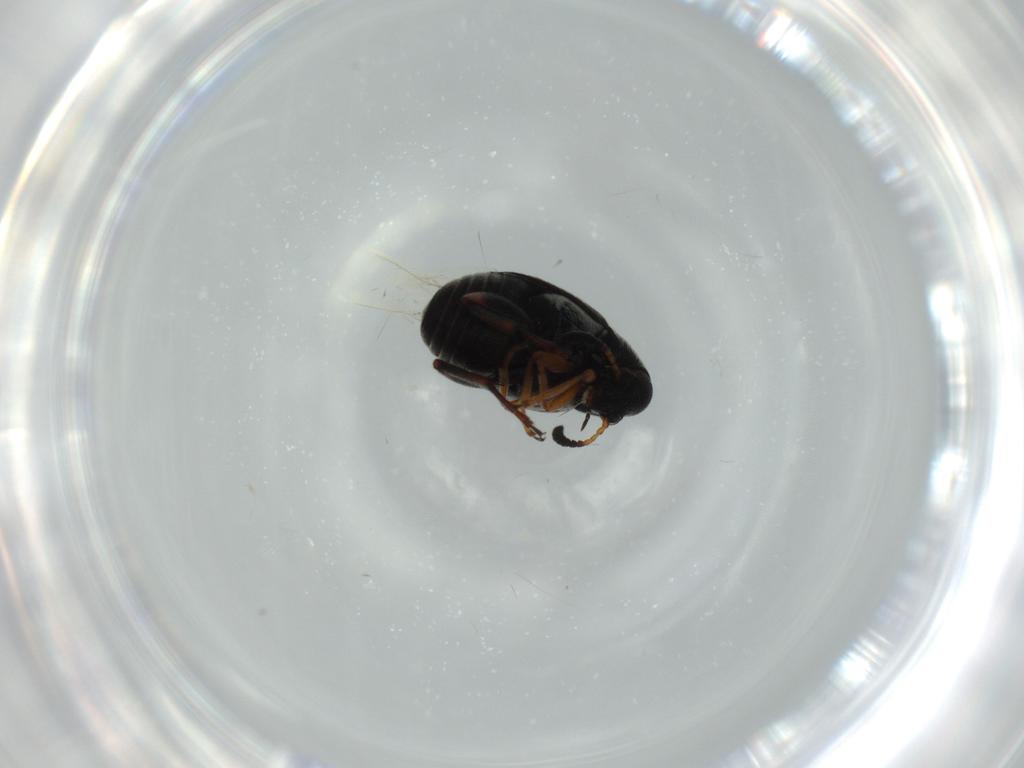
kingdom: Animalia
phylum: Arthropoda
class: Insecta
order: Coleoptera
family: Chrysomelidae
